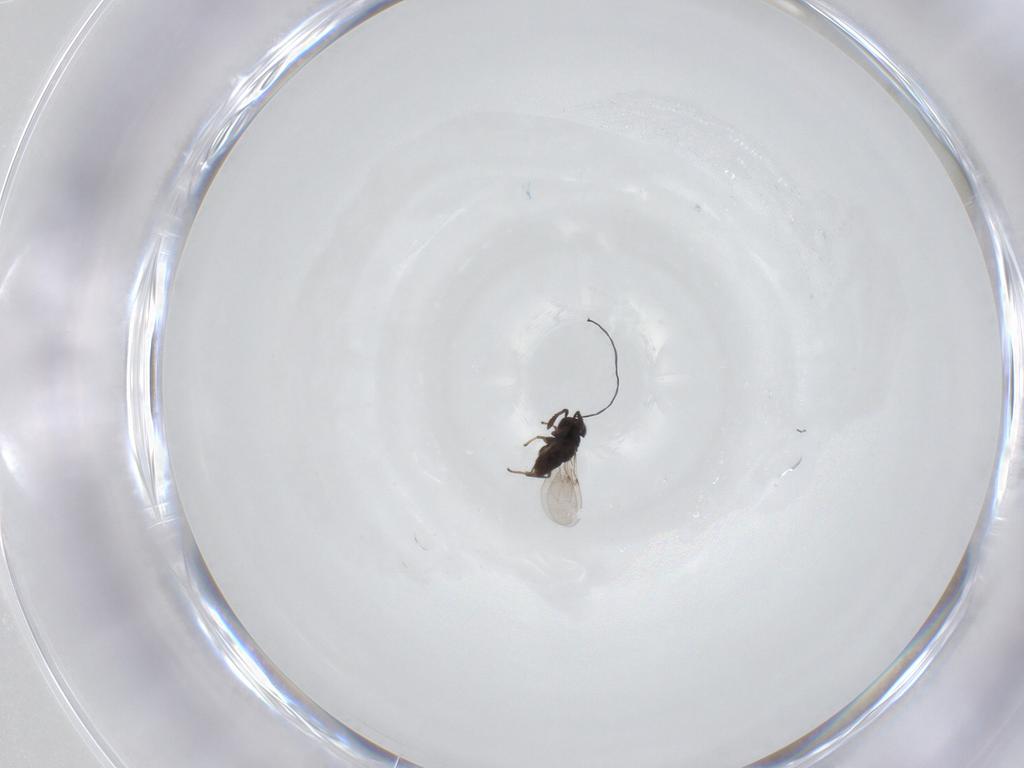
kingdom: Animalia
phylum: Arthropoda
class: Insecta
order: Diptera
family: Cecidomyiidae
